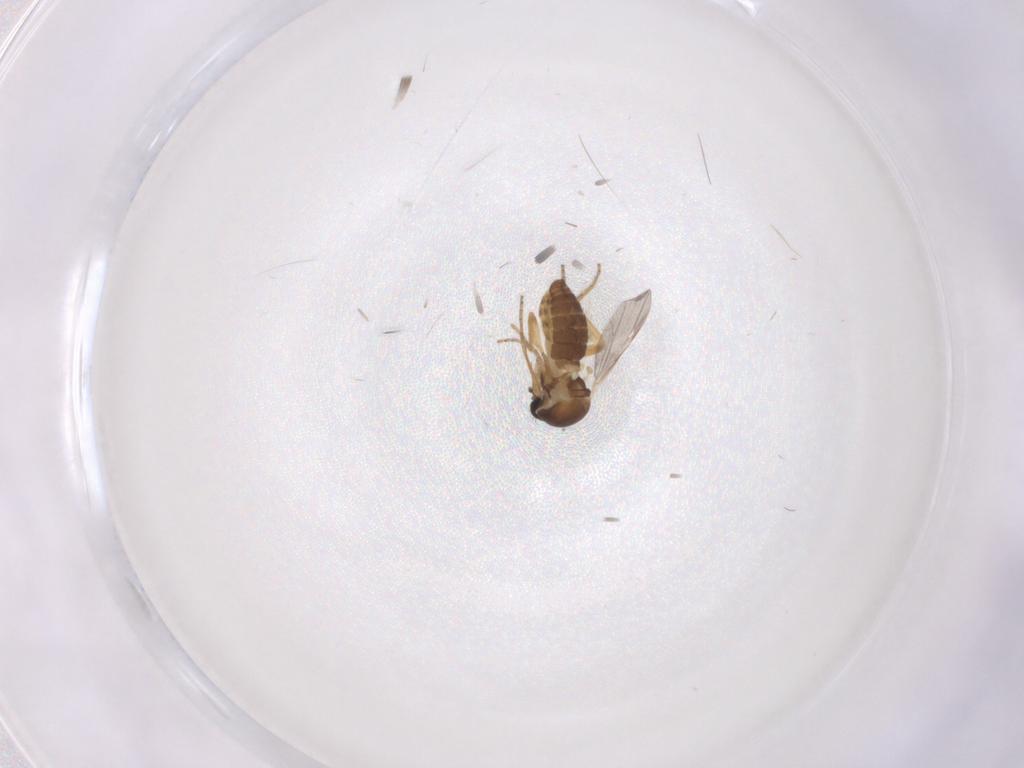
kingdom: Animalia
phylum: Arthropoda
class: Insecta
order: Diptera
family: Ceratopogonidae
